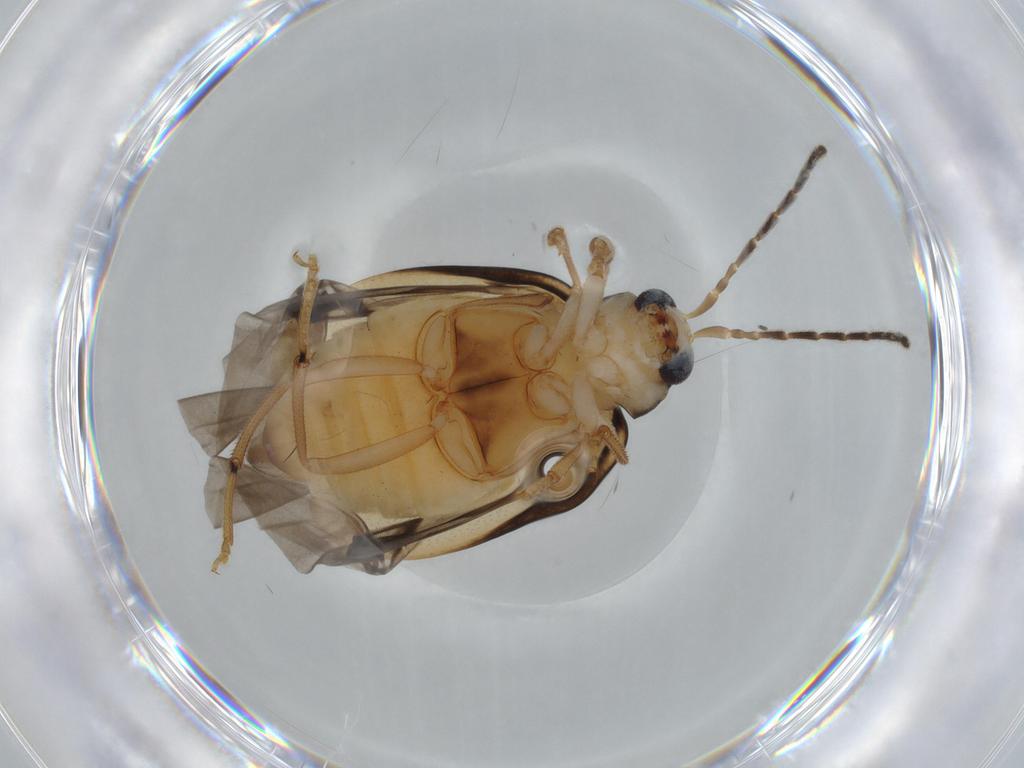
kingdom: Animalia
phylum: Arthropoda
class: Insecta
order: Coleoptera
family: Chrysomelidae
